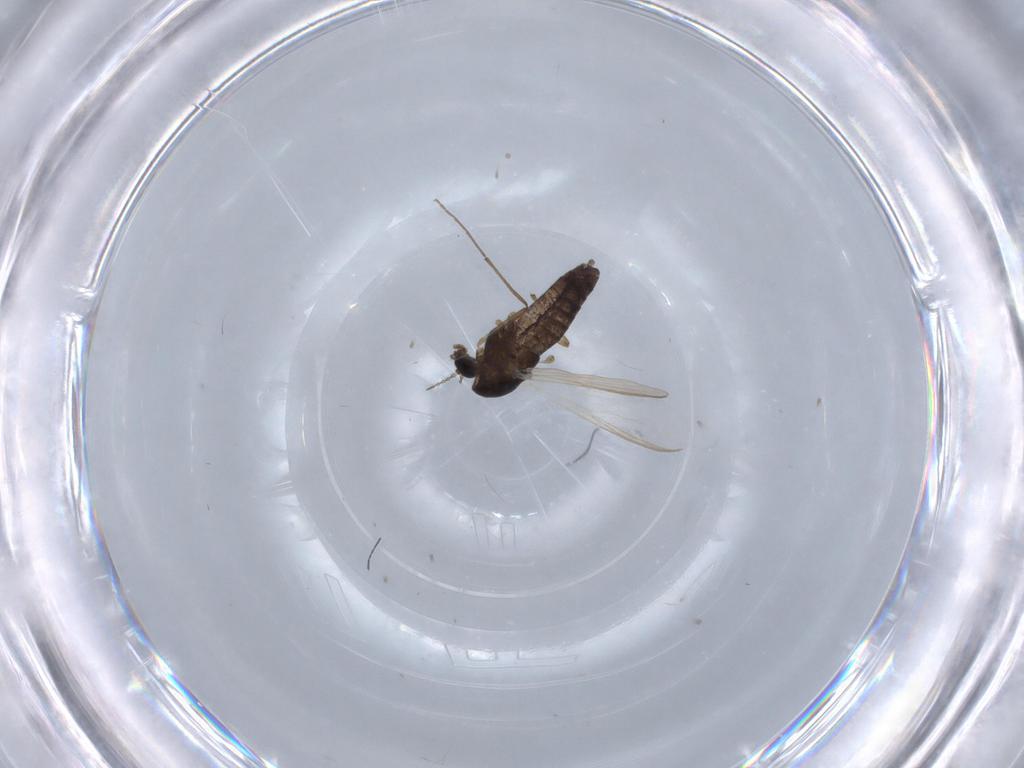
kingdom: Animalia
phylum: Arthropoda
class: Insecta
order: Diptera
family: Chironomidae
